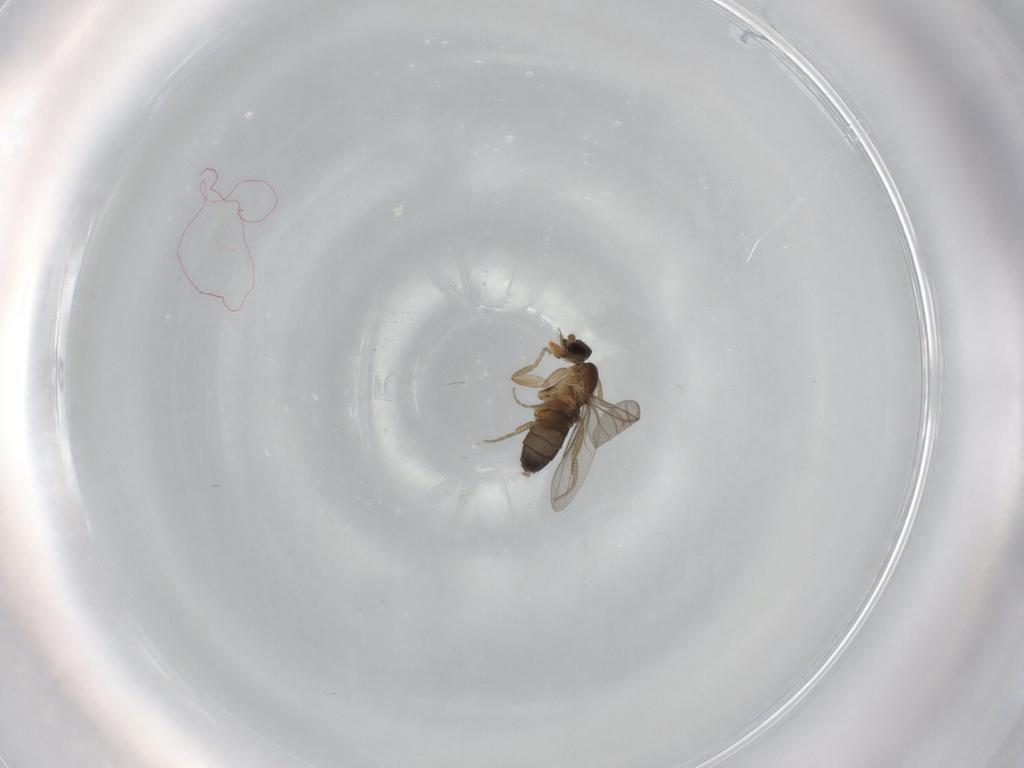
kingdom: Animalia
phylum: Arthropoda
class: Insecta
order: Diptera
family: Phoridae
